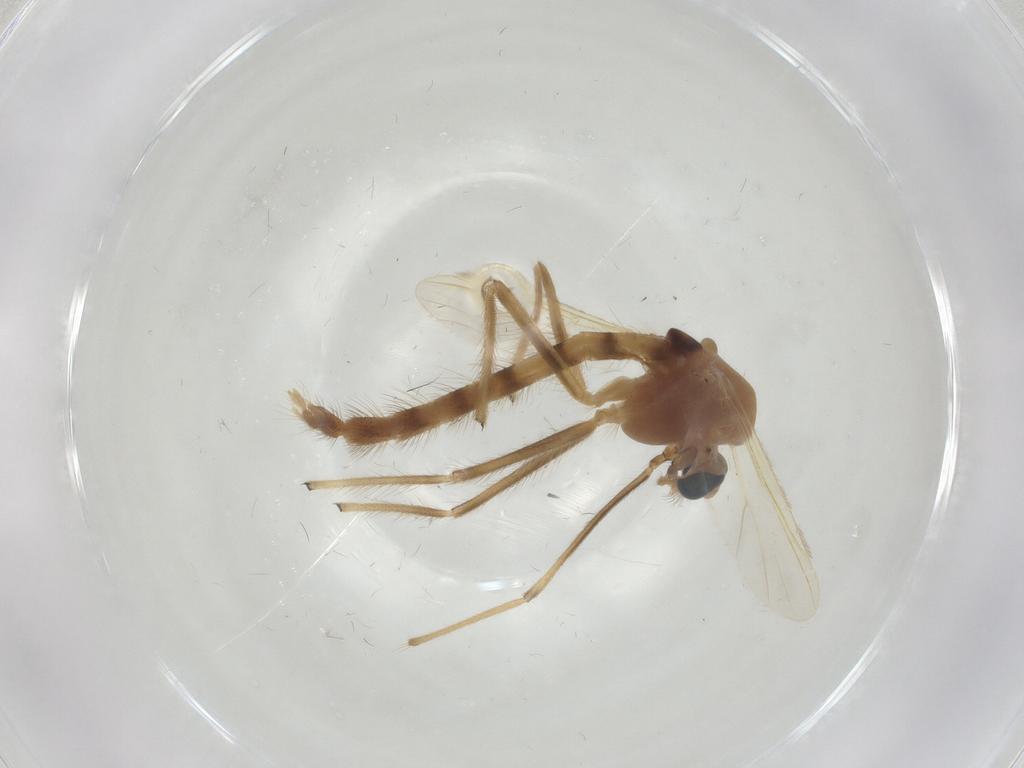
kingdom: Animalia
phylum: Arthropoda
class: Insecta
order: Diptera
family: Chironomidae
